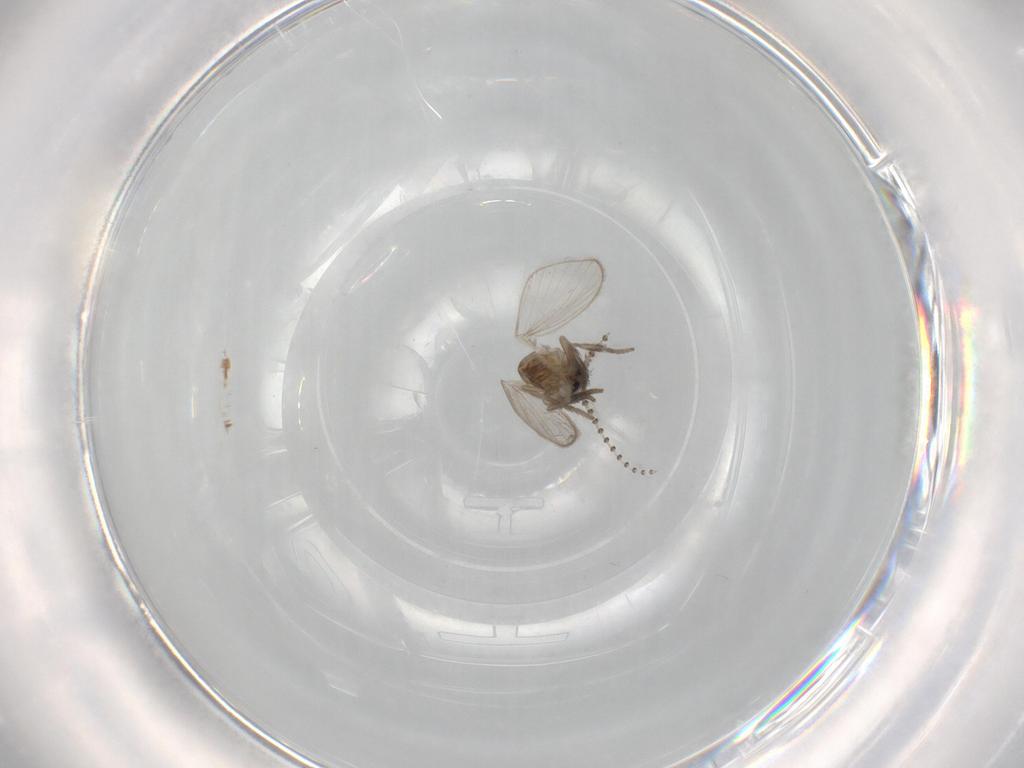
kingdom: Animalia
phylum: Arthropoda
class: Insecta
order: Diptera
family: Psychodidae
